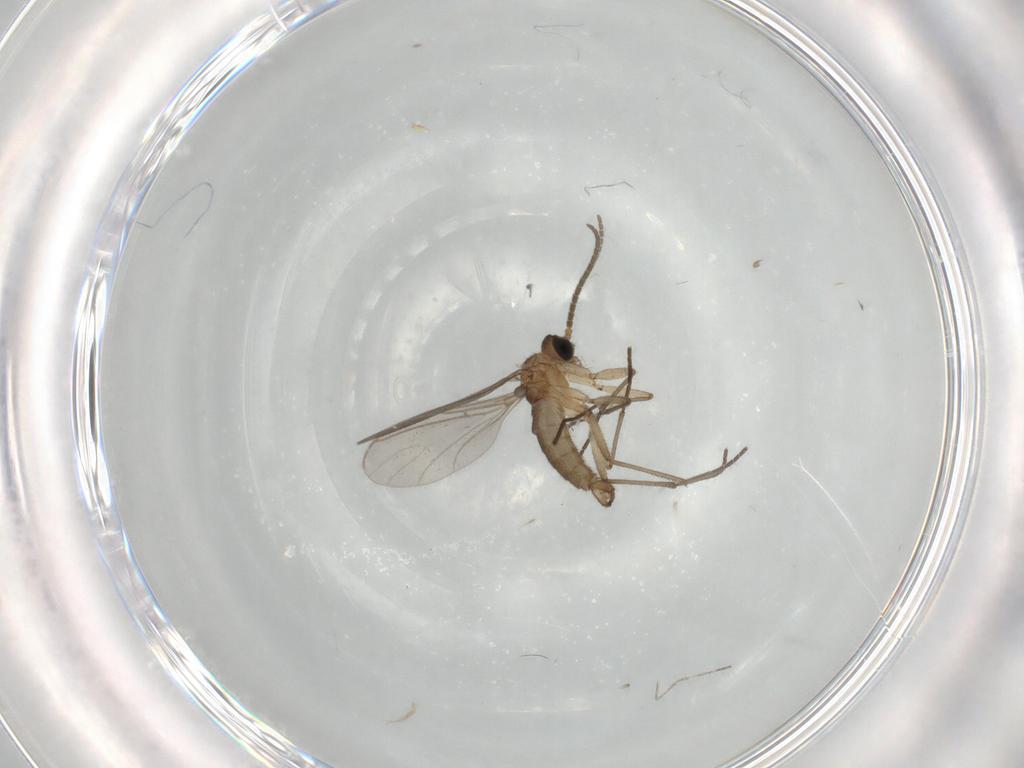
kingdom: Animalia
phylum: Arthropoda
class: Insecta
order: Diptera
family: Sciaridae
